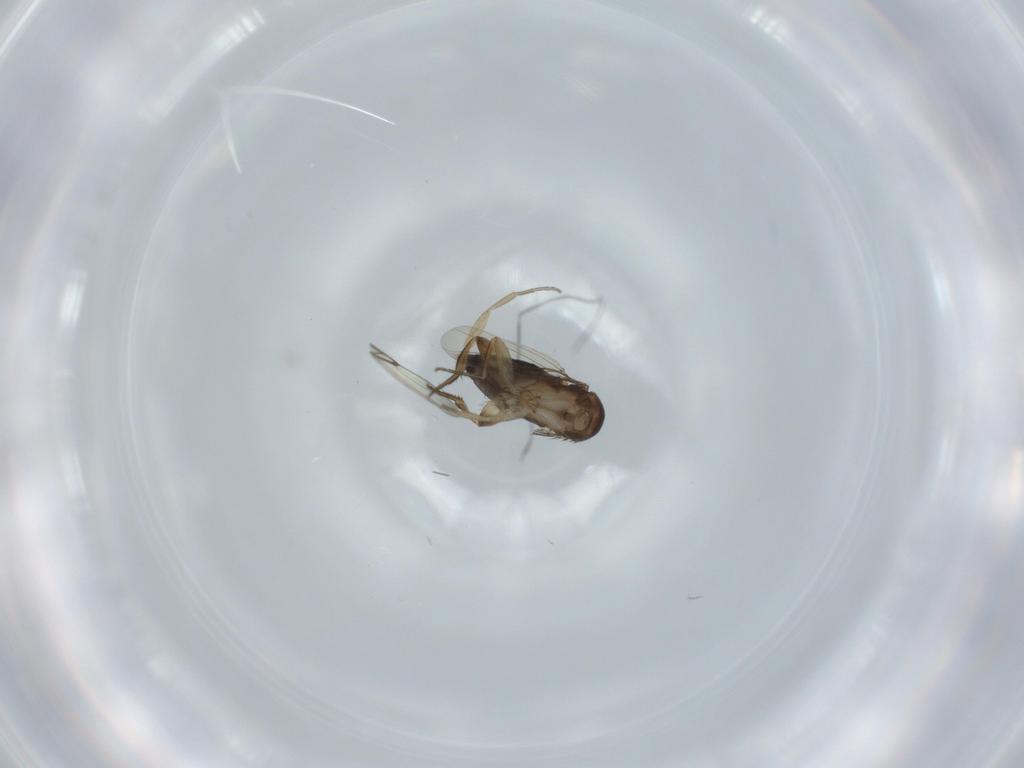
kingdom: Animalia
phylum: Arthropoda
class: Insecta
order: Diptera
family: Phoridae
